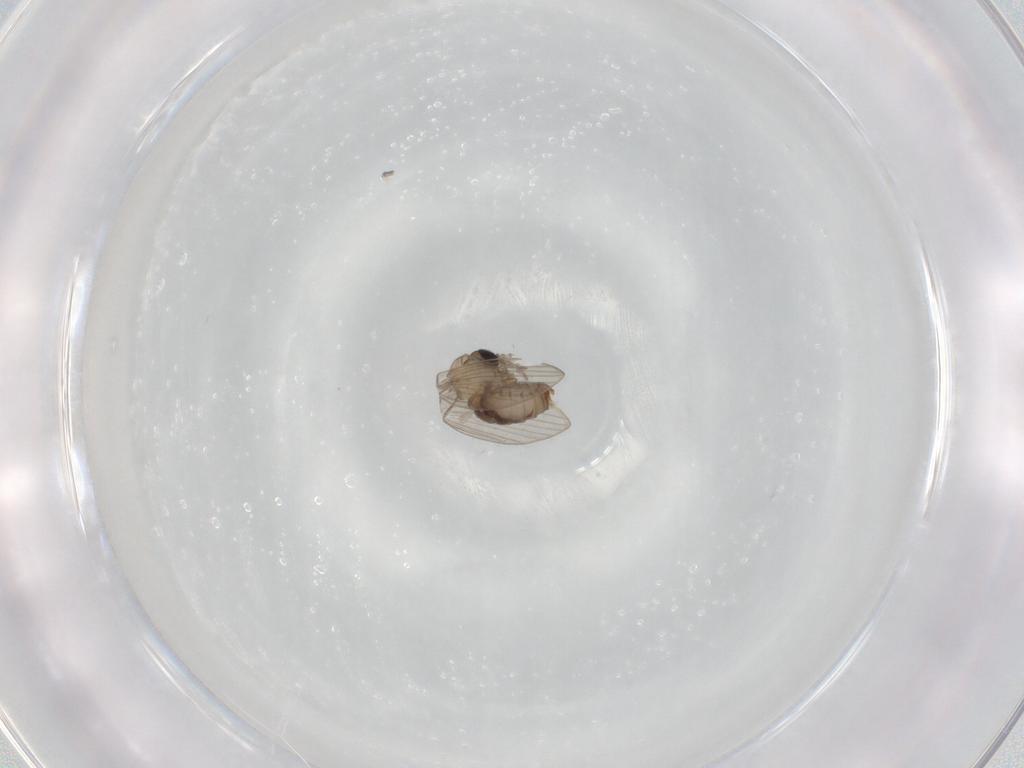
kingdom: Animalia
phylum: Arthropoda
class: Insecta
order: Diptera
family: Psychodidae
